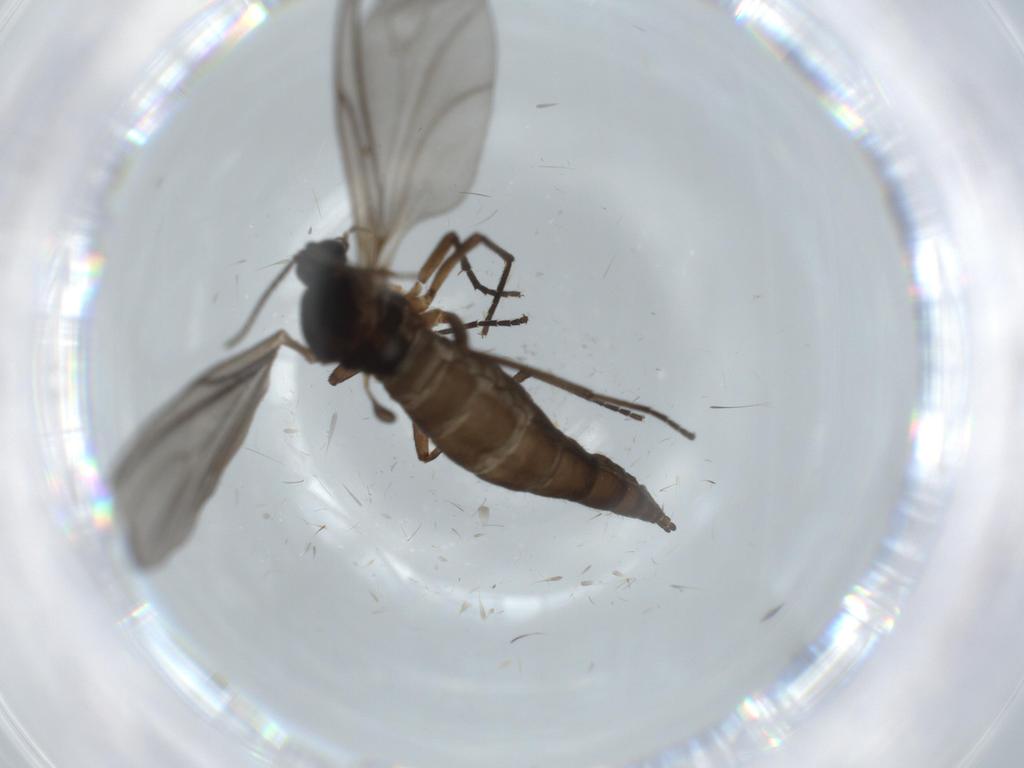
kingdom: Animalia
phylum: Arthropoda
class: Insecta
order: Diptera
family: Sciaridae
